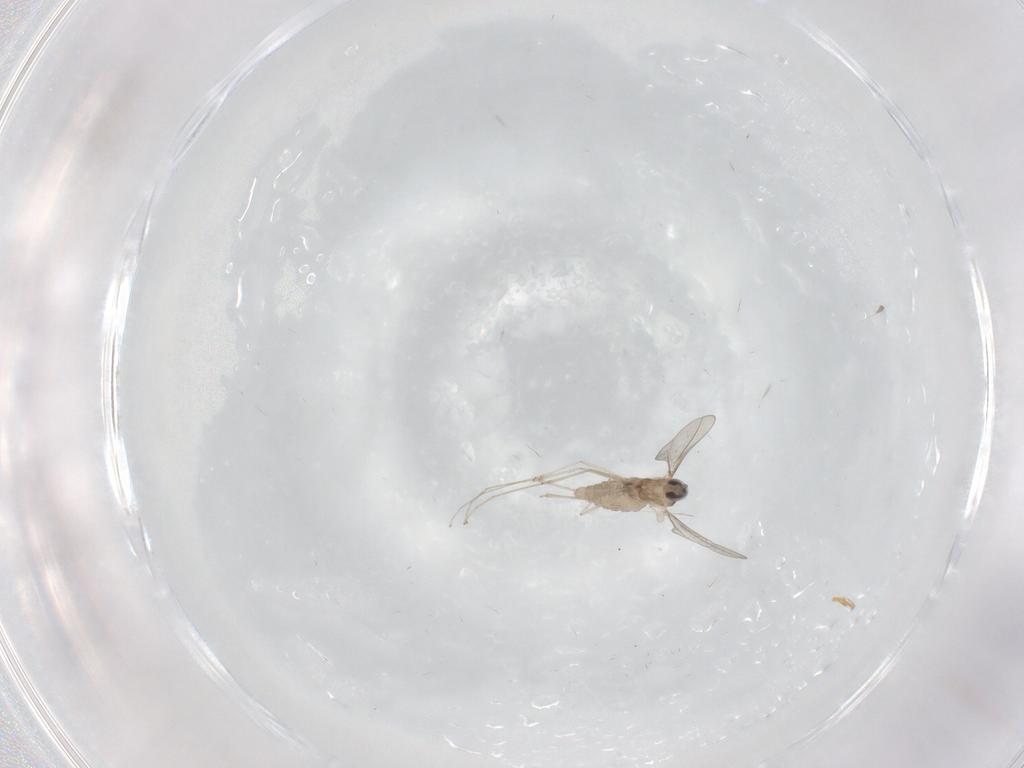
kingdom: Animalia
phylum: Arthropoda
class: Insecta
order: Diptera
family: Cecidomyiidae
